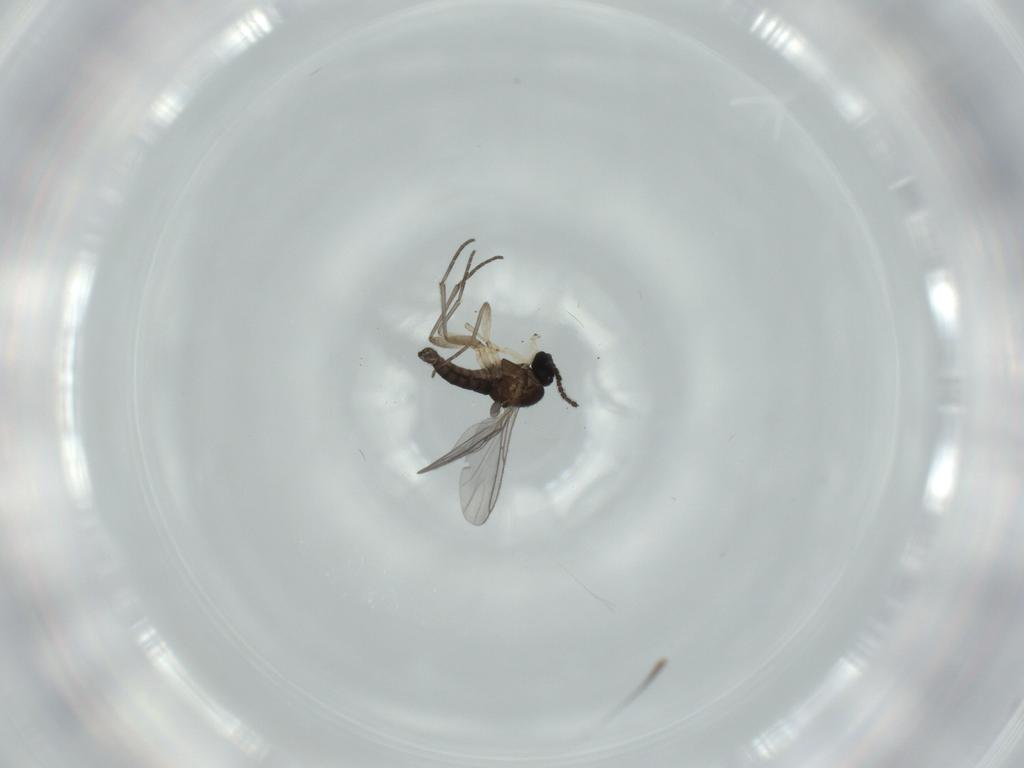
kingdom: Animalia
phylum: Arthropoda
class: Insecta
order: Diptera
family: Sciaridae
